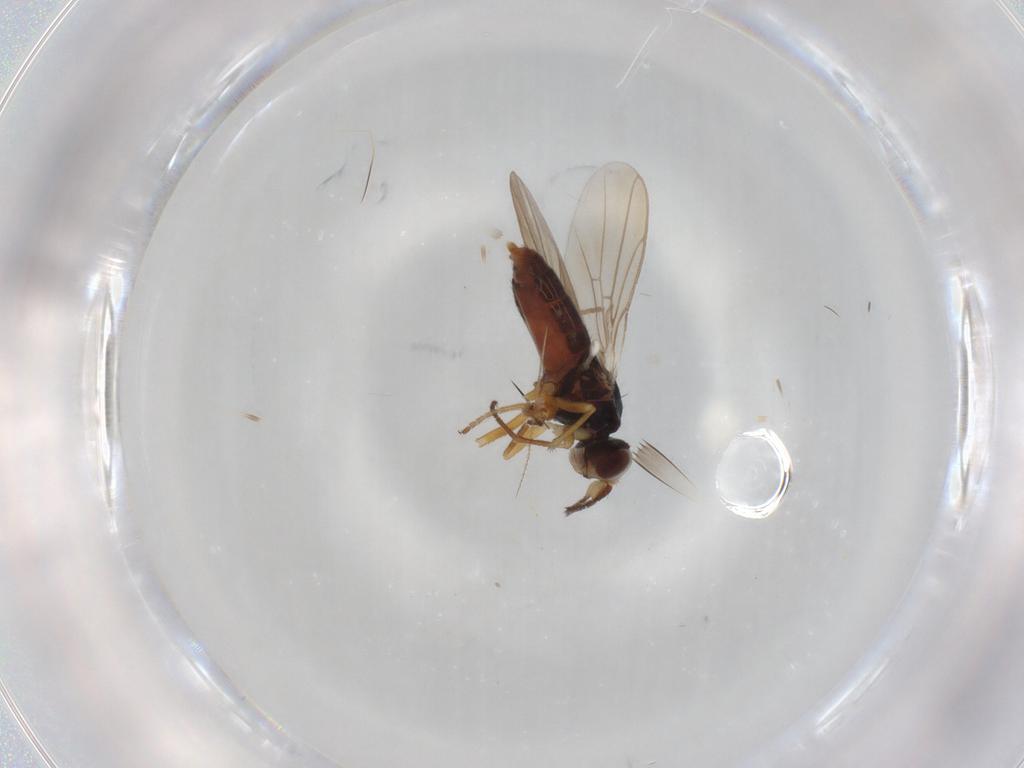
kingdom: Animalia
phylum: Arthropoda
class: Insecta
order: Diptera
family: Chloropidae
